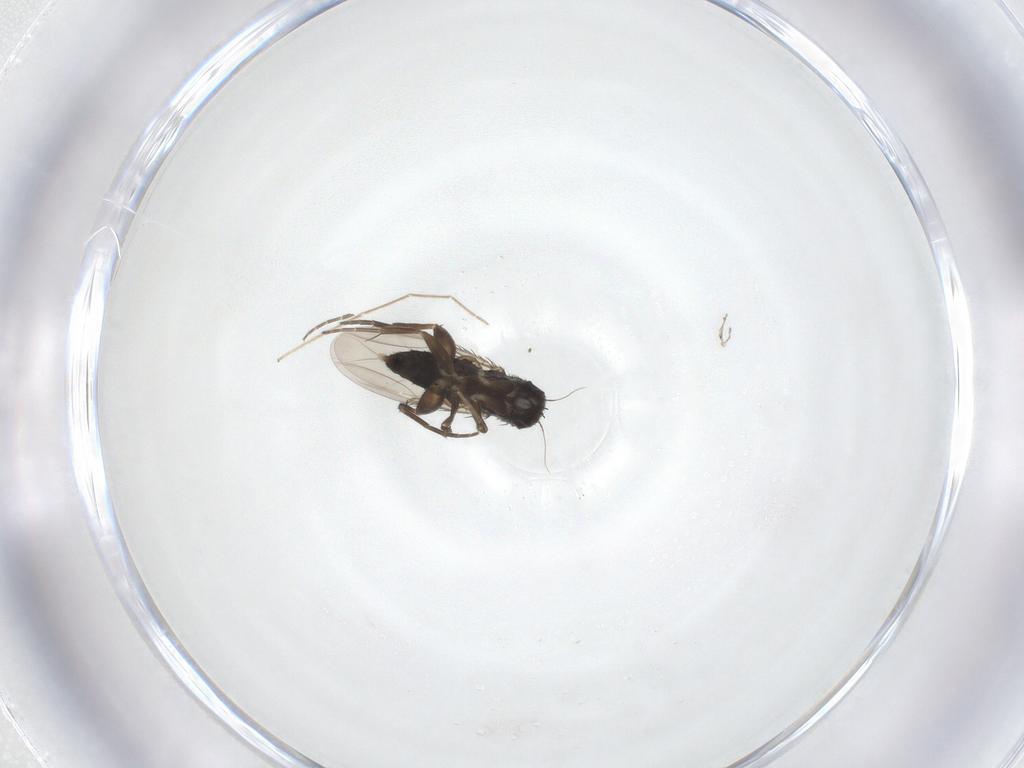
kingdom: Animalia
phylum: Arthropoda
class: Insecta
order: Diptera
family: Phoridae
